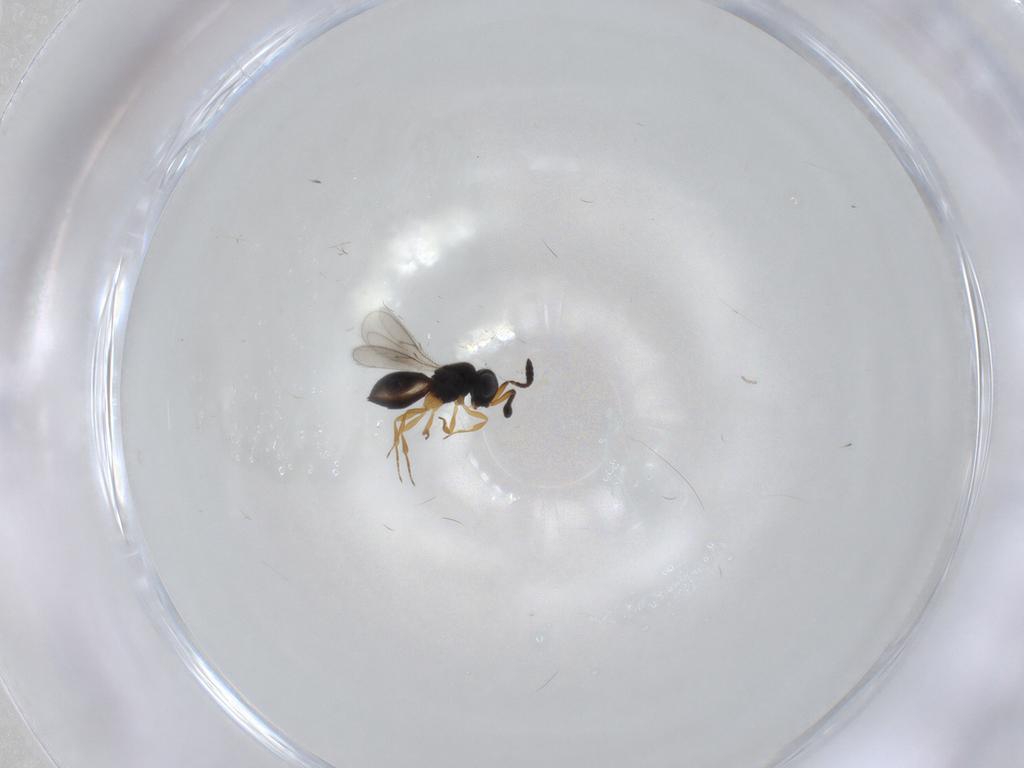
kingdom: Animalia
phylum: Arthropoda
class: Insecta
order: Hymenoptera
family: Scelionidae
